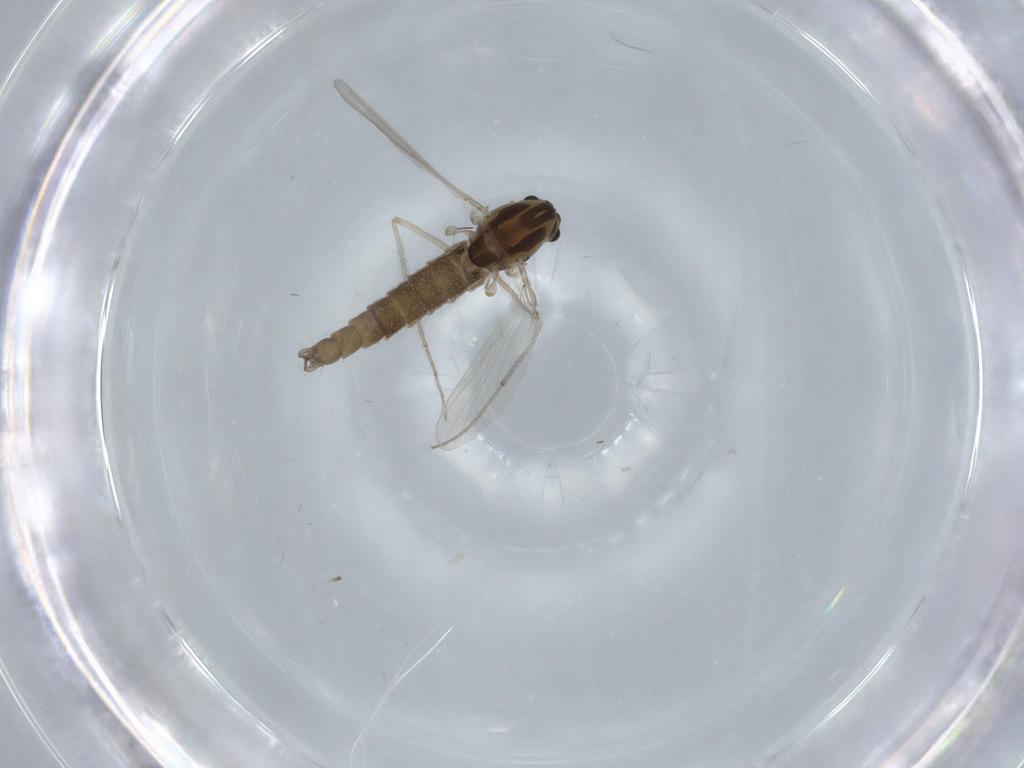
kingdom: Animalia
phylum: Arthropoda
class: Insecta
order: Diptera
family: Chironomidae
